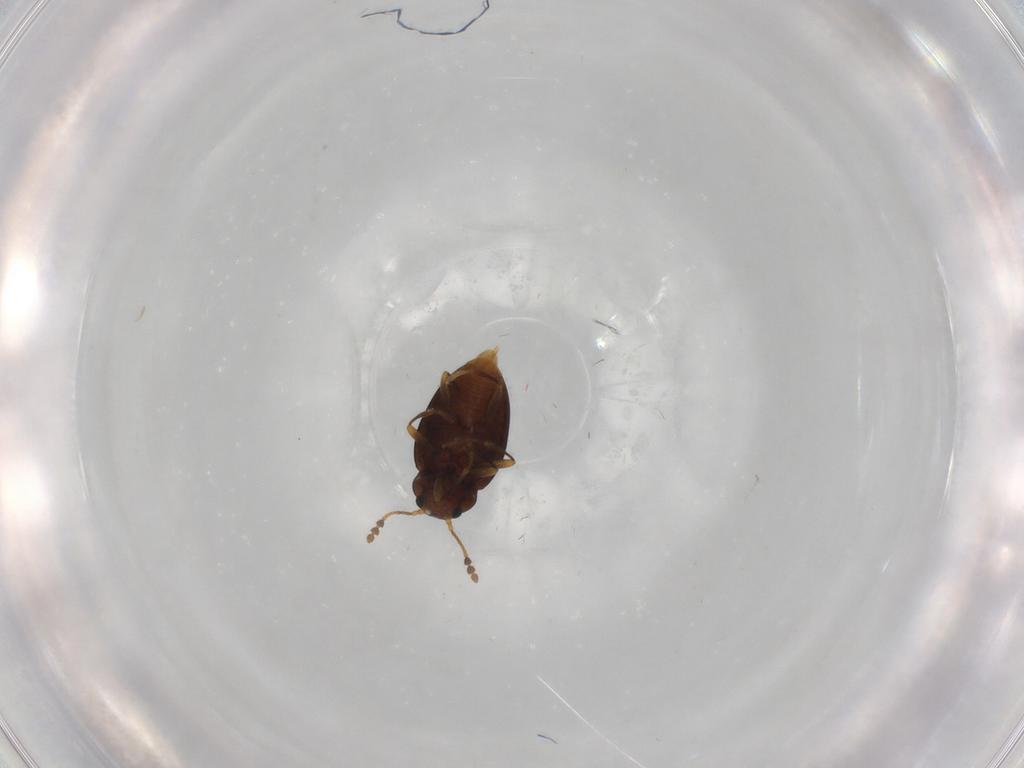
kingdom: Animalia
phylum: Arthropoda
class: Insecta
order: Coleoptera
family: Erotylidae
